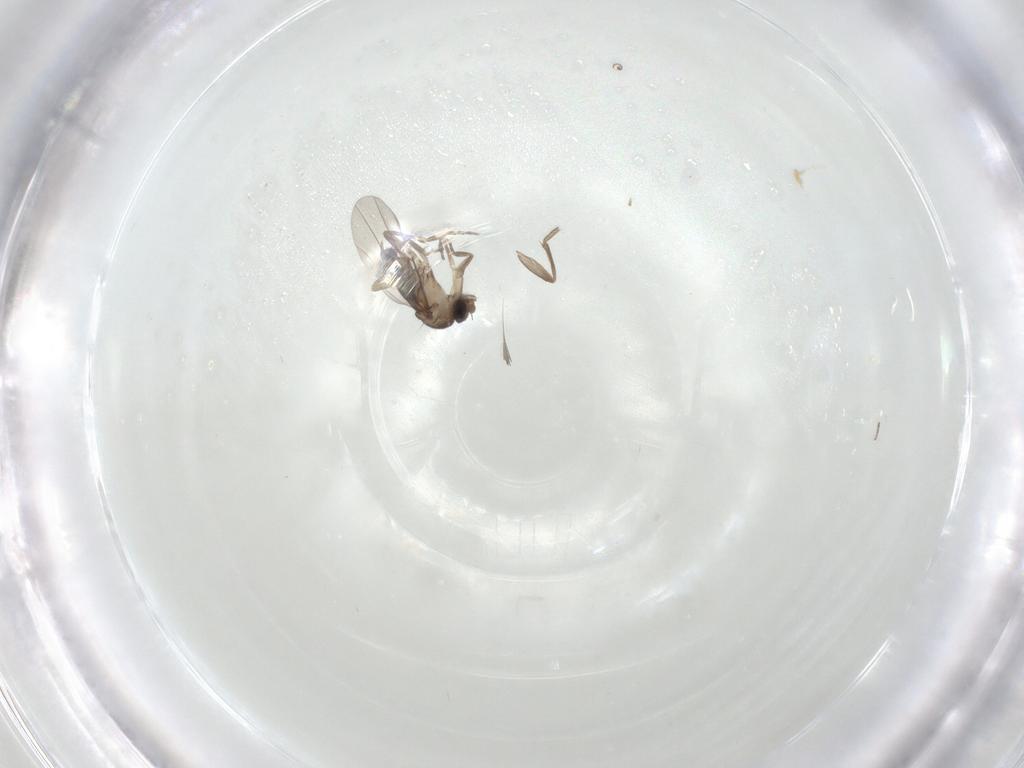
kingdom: Animalia
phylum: Arthropoda
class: Insecta
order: Diptera
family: Phoridae
